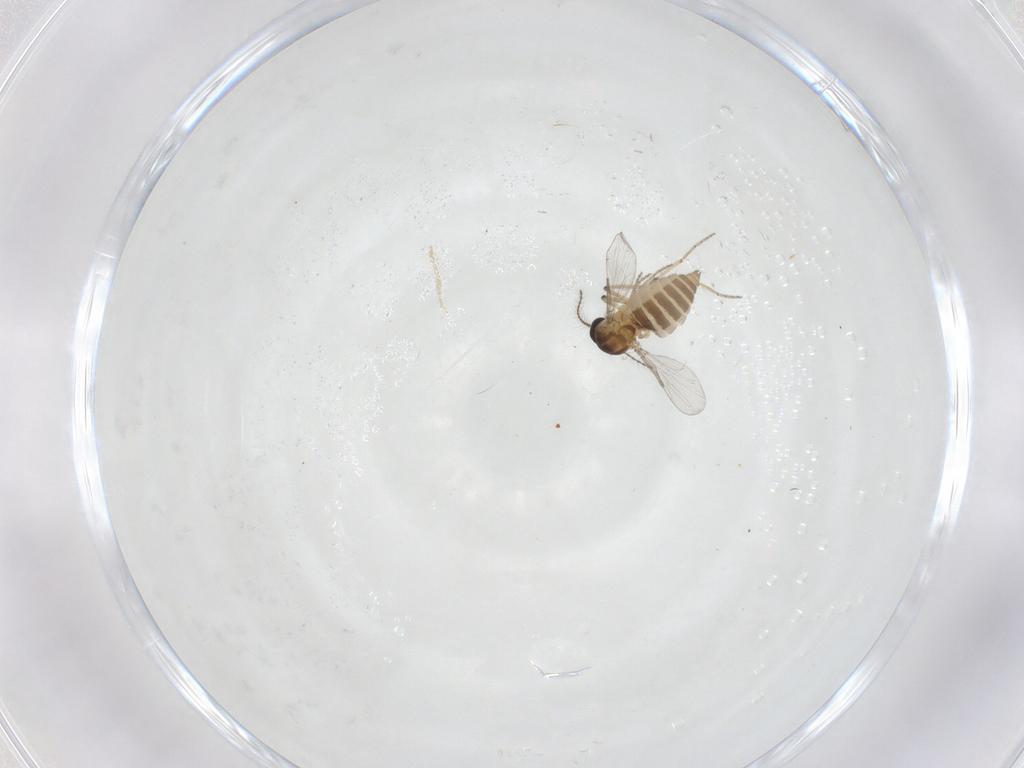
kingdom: Animalia
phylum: Arthropoda
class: Insecta
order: Diptera
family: Ceratopogonidae
